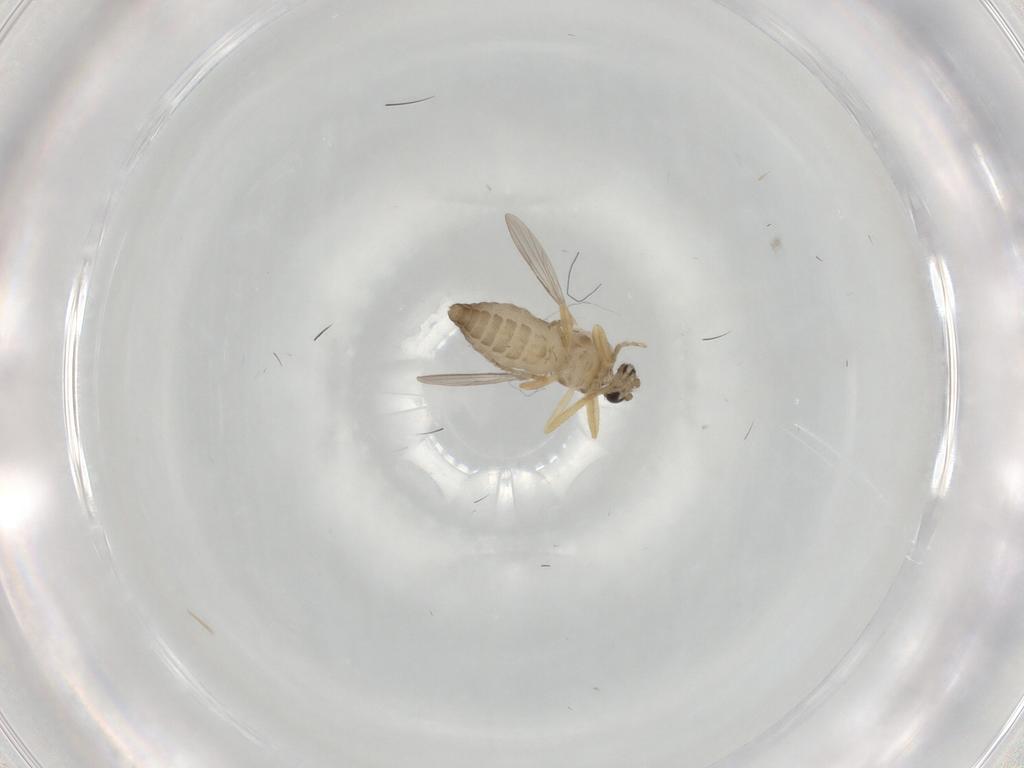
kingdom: Animalia
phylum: Arthropoda
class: Insecta
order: Diptera
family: Ceratopogonidae
